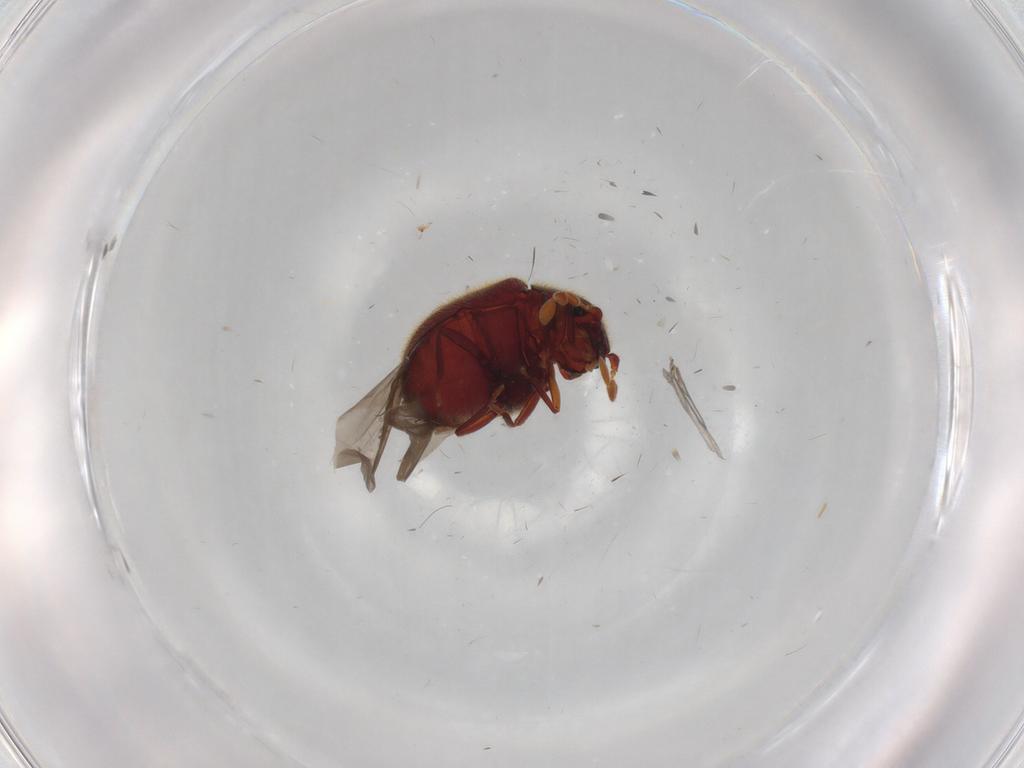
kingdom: Animalia
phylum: Arthropoda
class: Insecta
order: Coleoptera
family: Ptinidae
